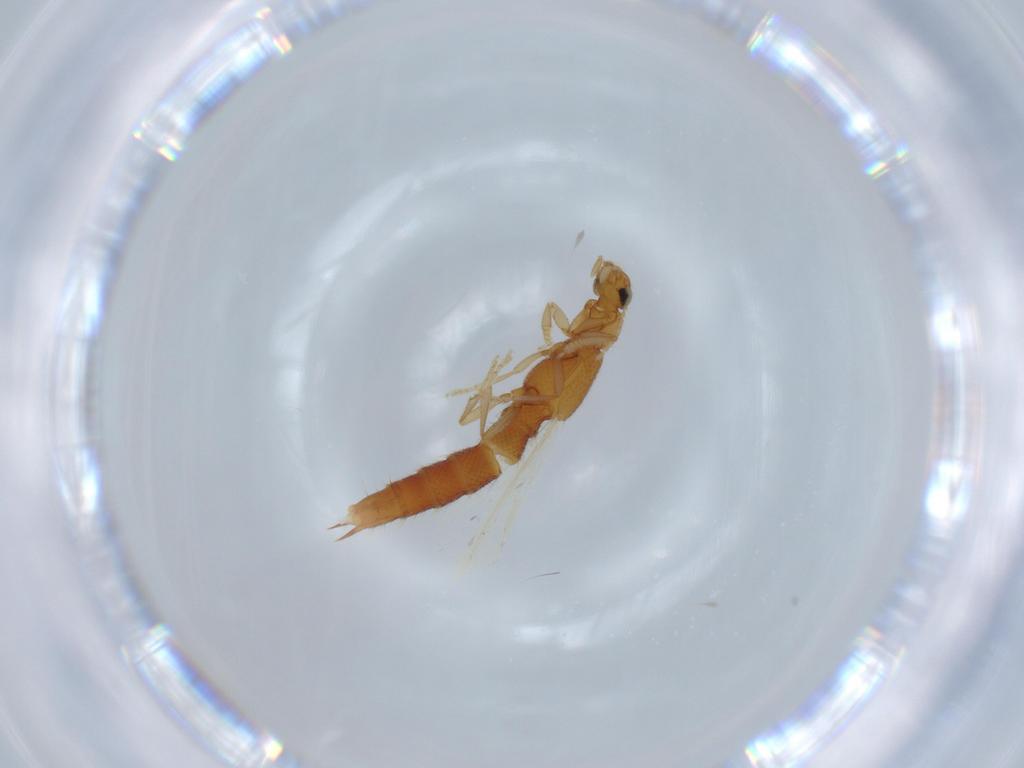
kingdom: Animalia
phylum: Arthropoda
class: Insecta
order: Coleoptera
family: Staphylinidae
